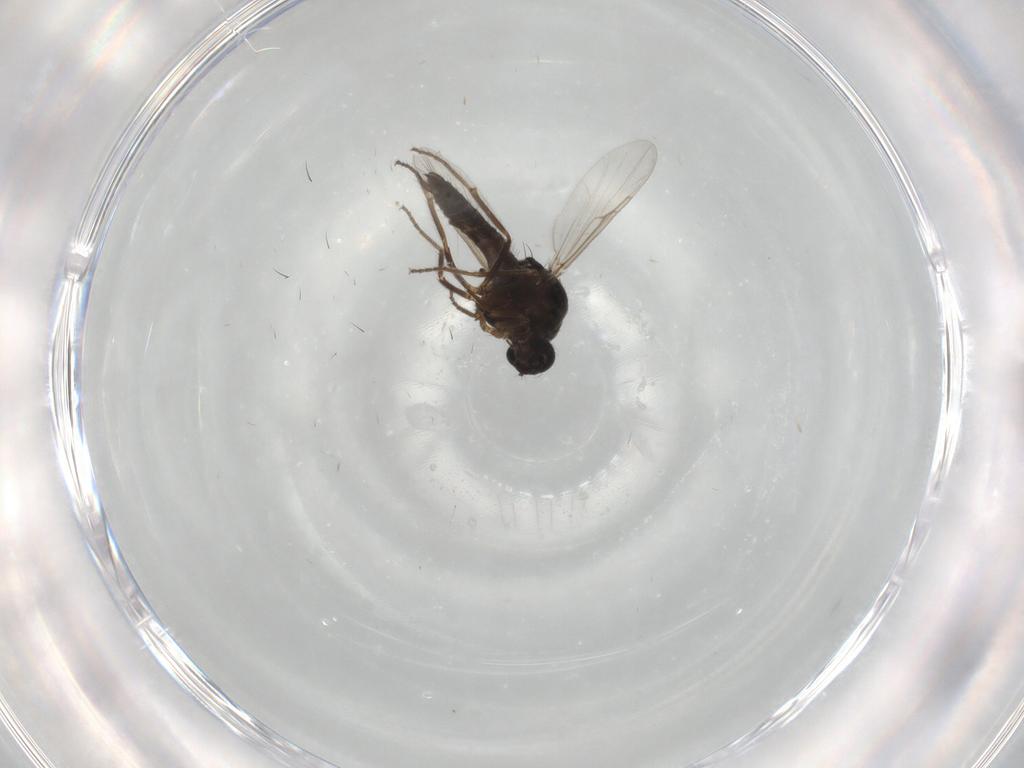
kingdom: Animalia
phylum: Arthropoda
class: Insecta
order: Diptera
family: Ceratopogonidae
